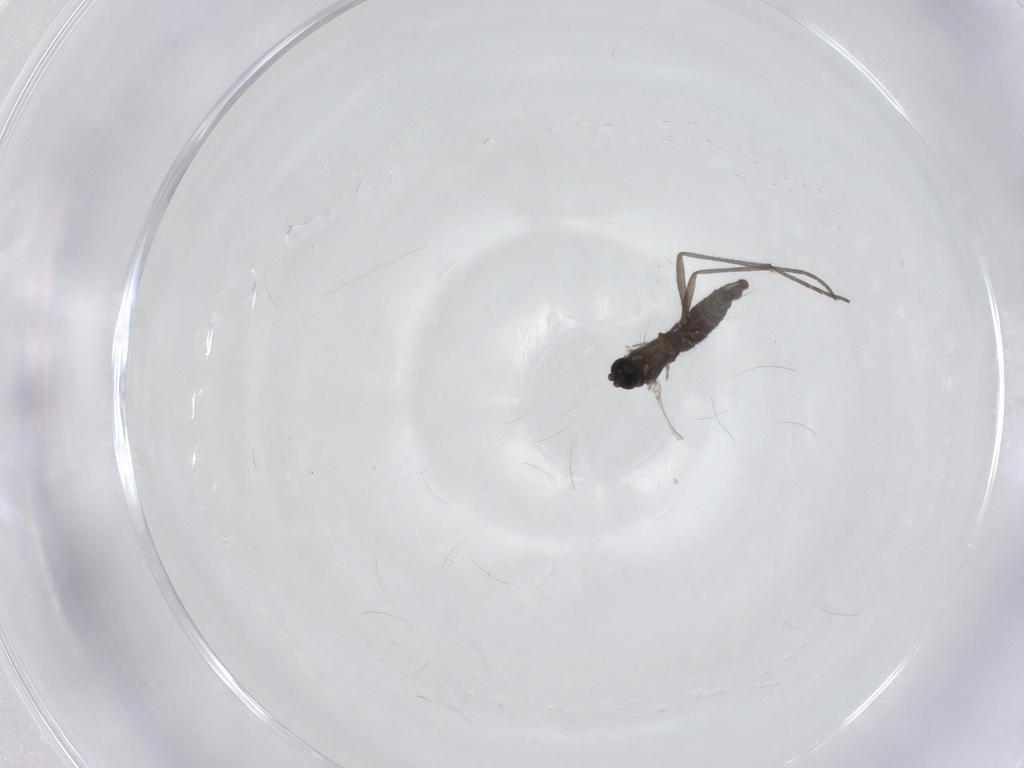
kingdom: Animalia
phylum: Arthropoda
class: Insecta
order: Diptera
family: Sciaridae
